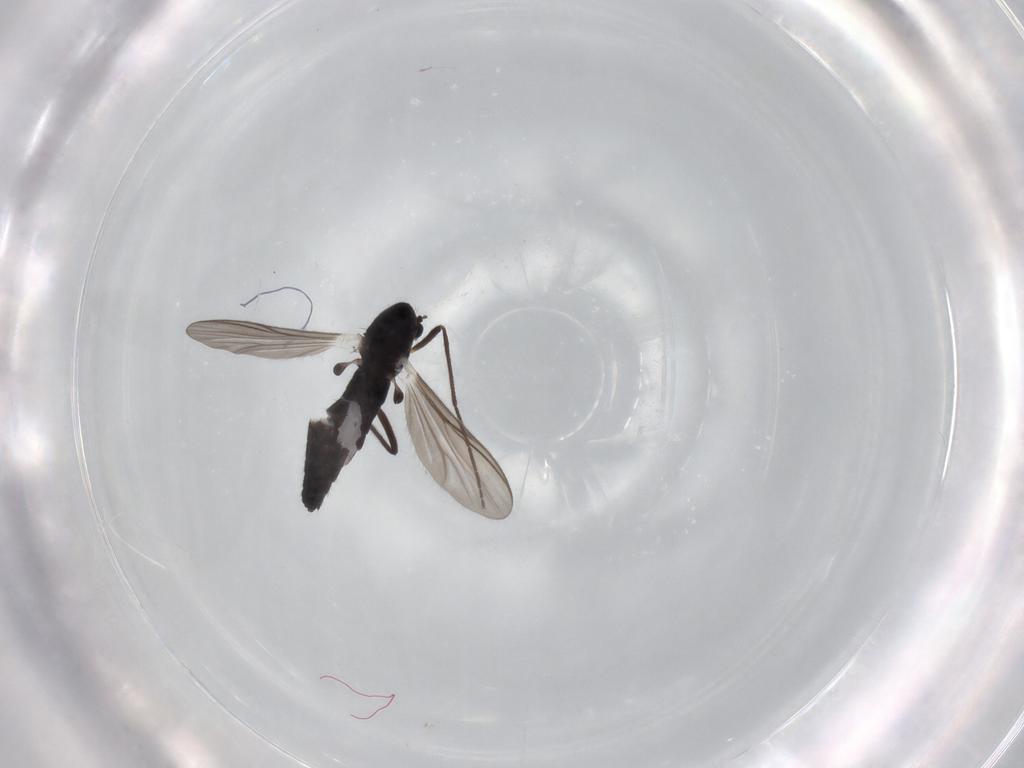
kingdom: Animalia
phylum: Arthropoda
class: Insecta
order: Diptera
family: Chironomidae
